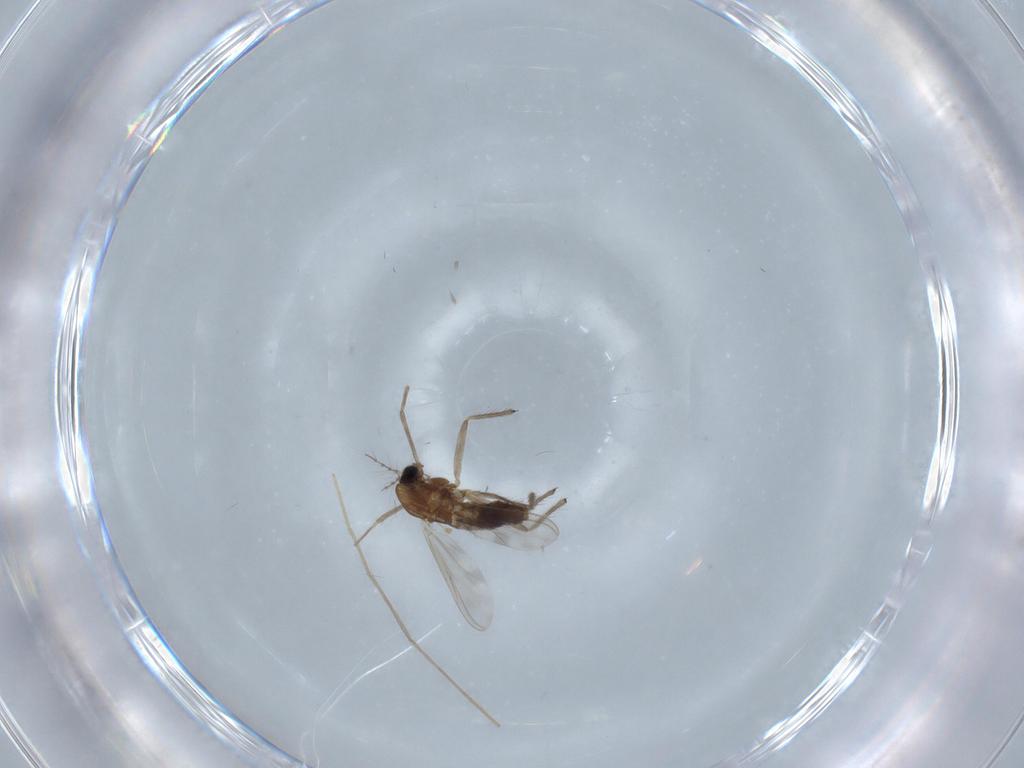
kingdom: Animalia
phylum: Arthropoda
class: Insecta
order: Diptera
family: Chironomidae
